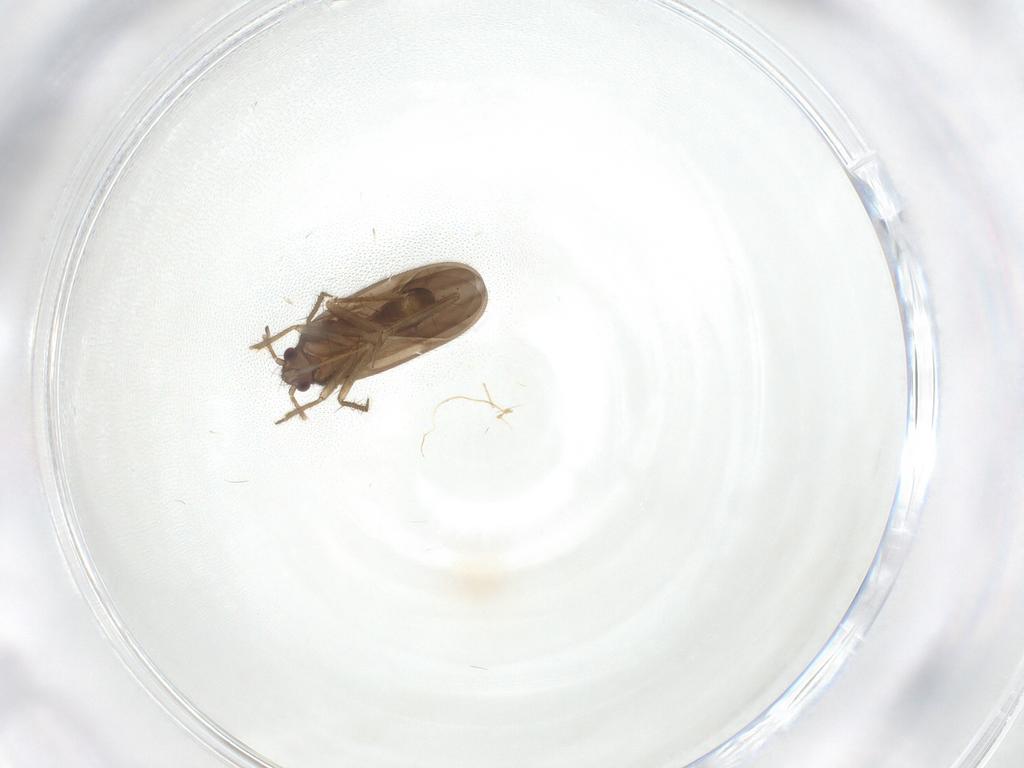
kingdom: Animalia
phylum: Arthropoda
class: Insecta
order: Hemiptera
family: Ceratocombidae
